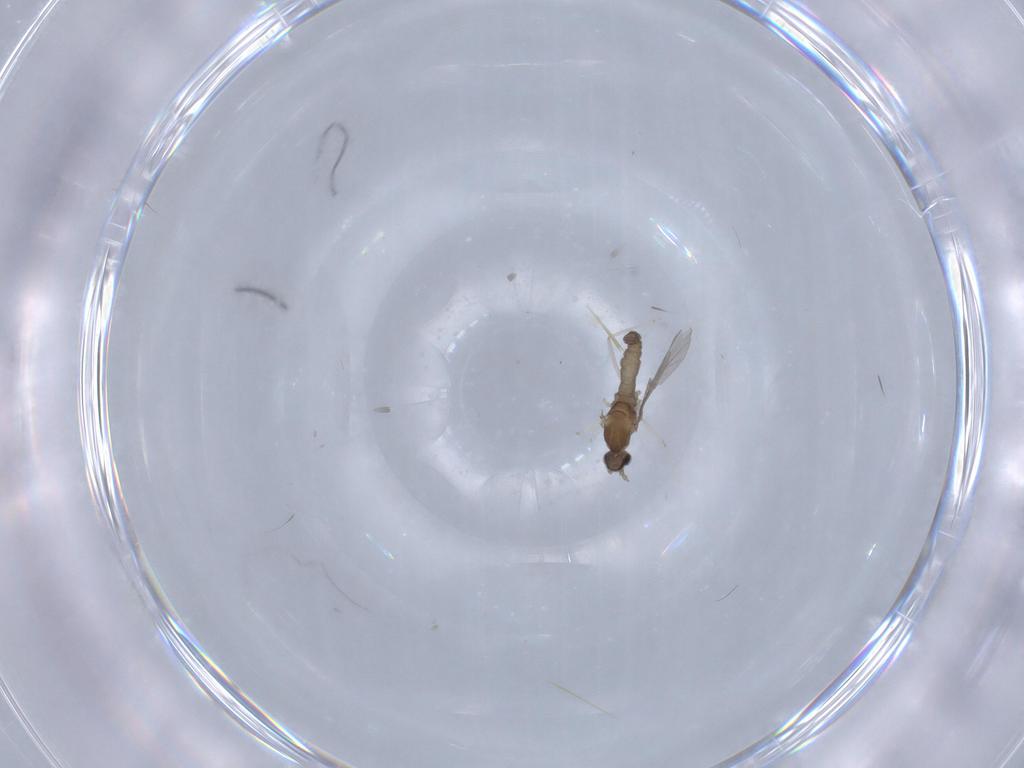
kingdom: Animalia
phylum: Arthropoda
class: Insecta
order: Diptera
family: Cecidomyiidae
